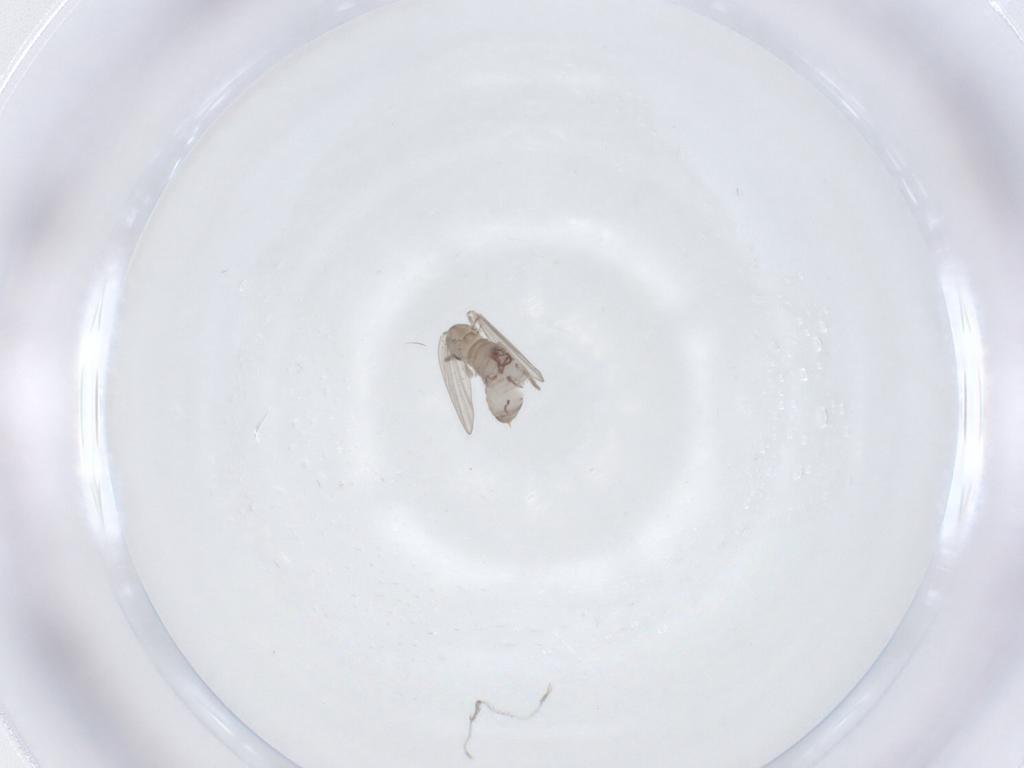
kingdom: Animalia
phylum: Arthropoda
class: Insecta
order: Diptera
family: Psychodidae
